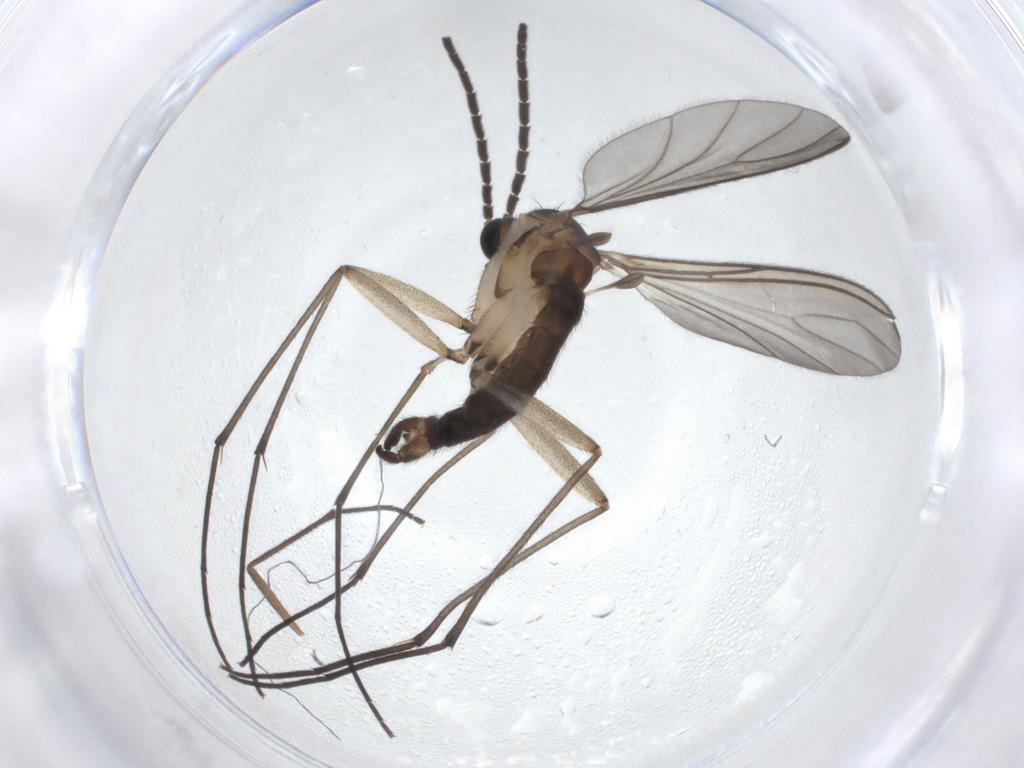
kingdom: Animalia
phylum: Arthropoda
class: Insecta
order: Diptera
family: Sciaridae
